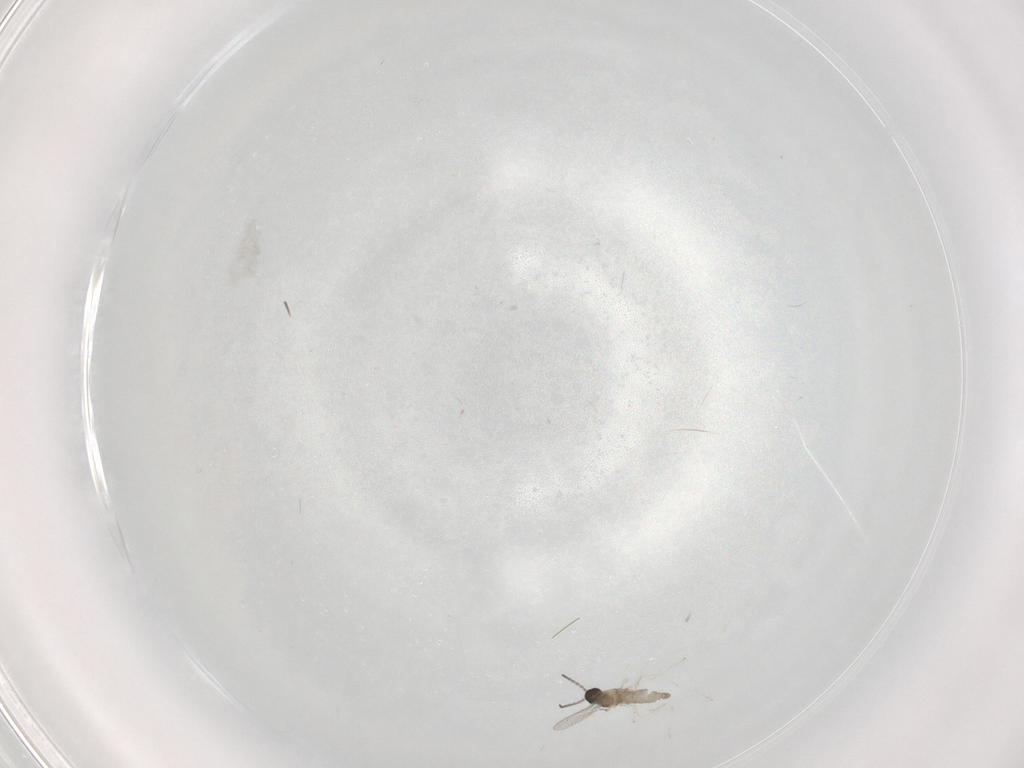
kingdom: Animalia
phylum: Arthropoda
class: Insecta
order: Diptera
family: Cecidomyiidae
